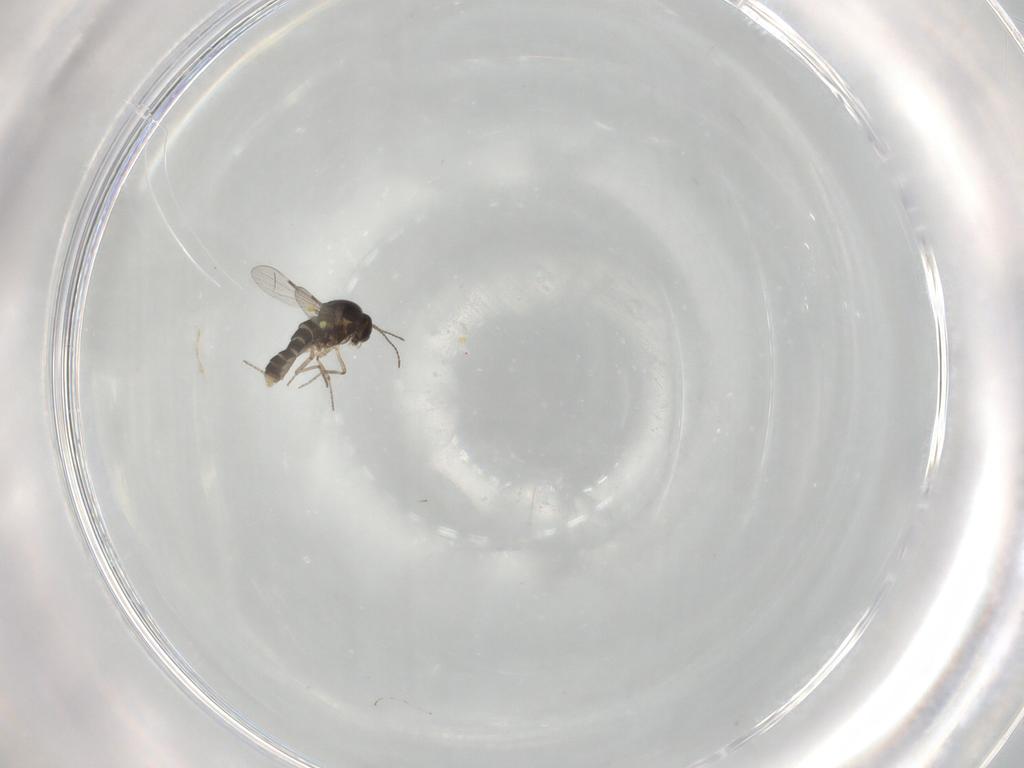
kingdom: Animalia
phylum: Arthropoda
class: Insecta
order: Diptera
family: Ceratopogonidae
